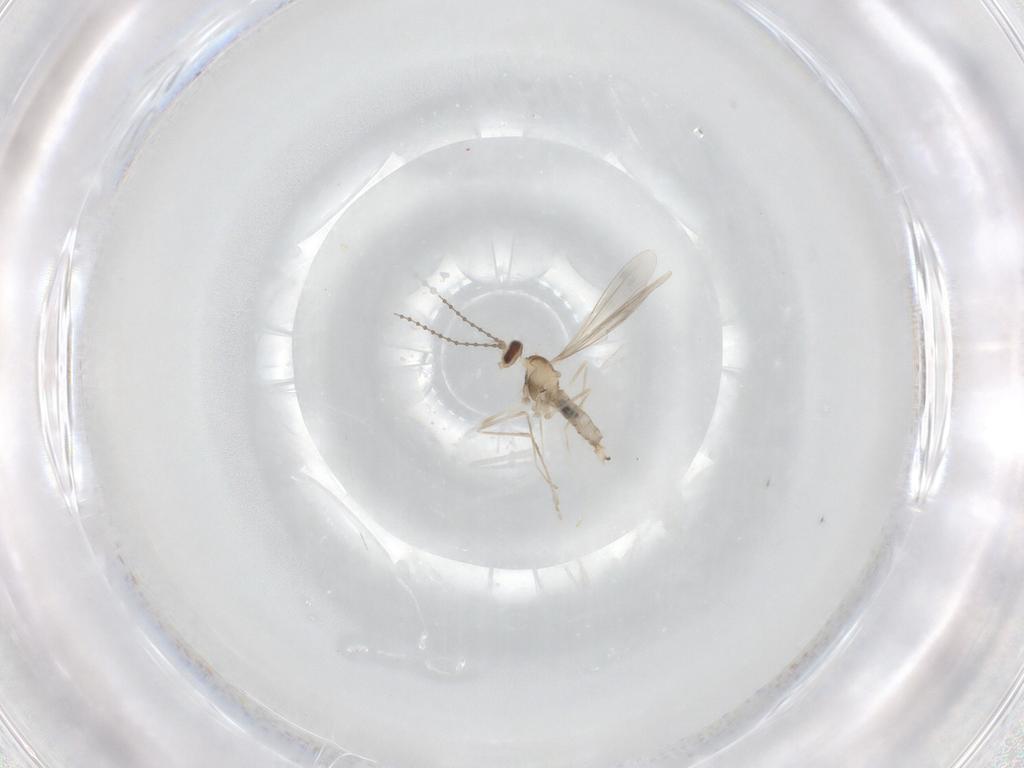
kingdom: Animalia
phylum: Arthropoda
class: Insecta
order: Diptera
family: Cecidomyiidae
